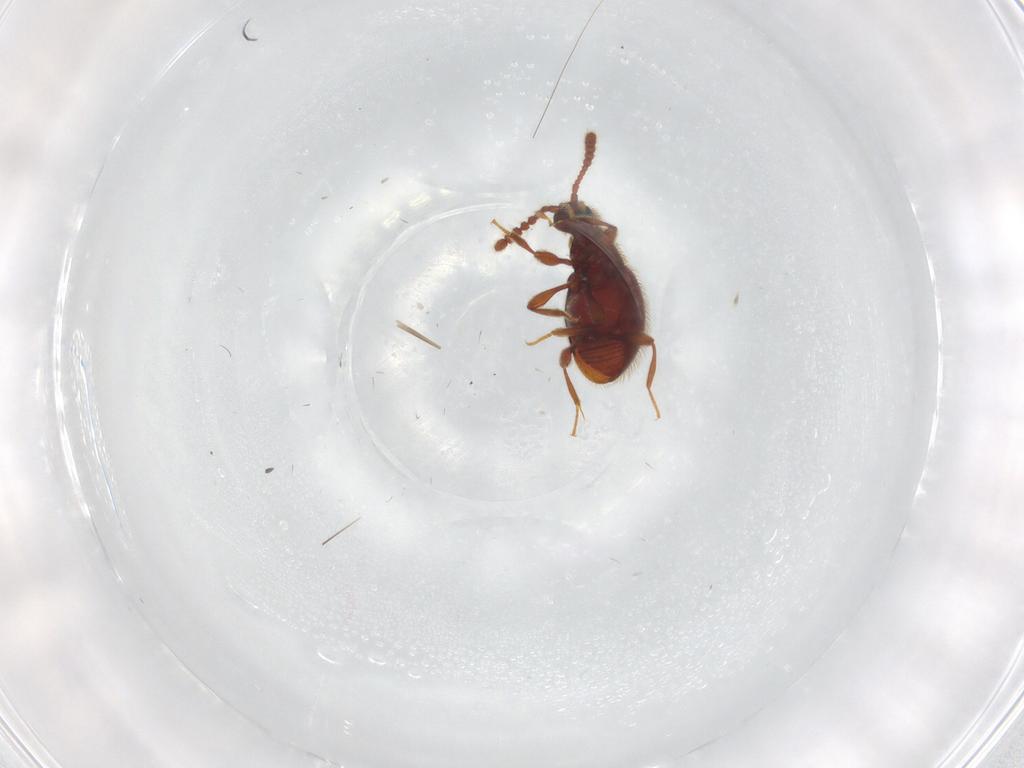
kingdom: Animalia
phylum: Arthropoda
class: Insecta
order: Coleoptera
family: Staphylinidae
